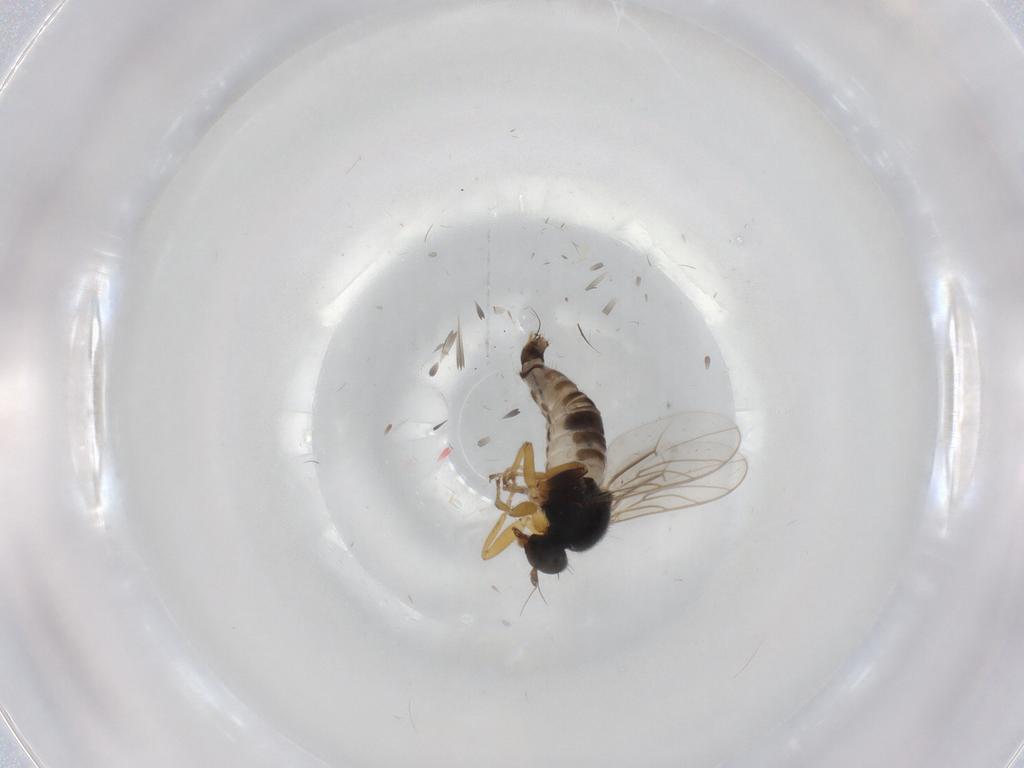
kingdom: Animalia
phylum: Arthropoda
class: Insecta
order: Diptera
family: Hybotidae
